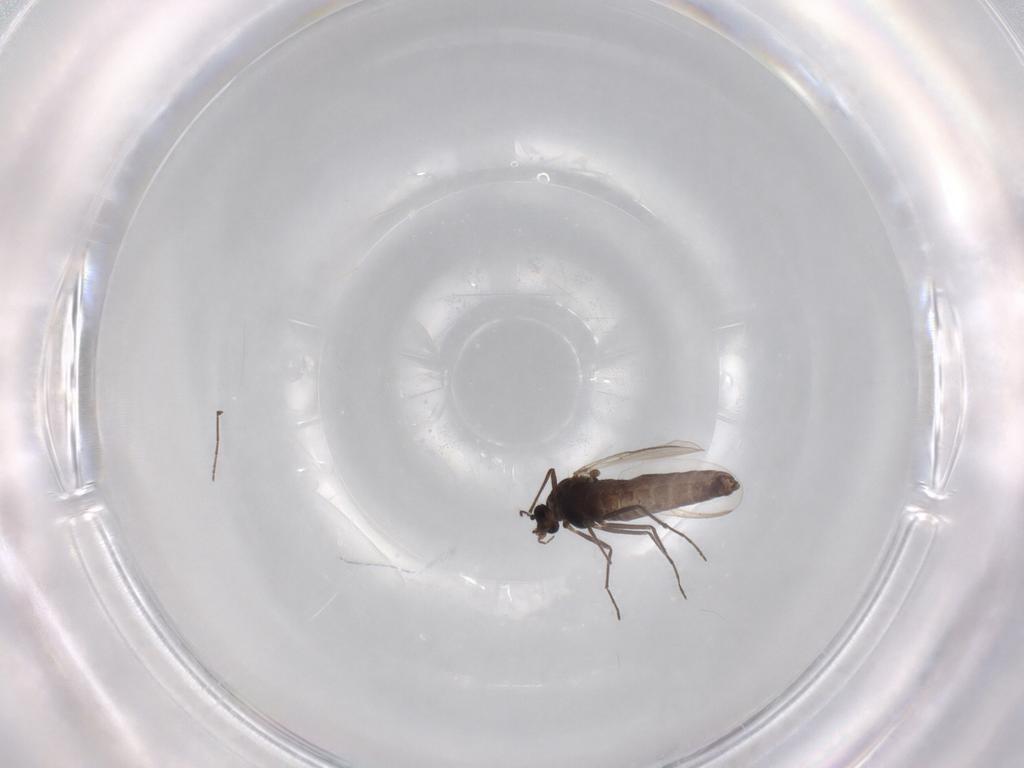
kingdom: Animalia
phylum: Arthropoda
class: Insecta
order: Diptera
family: Chironomidae
